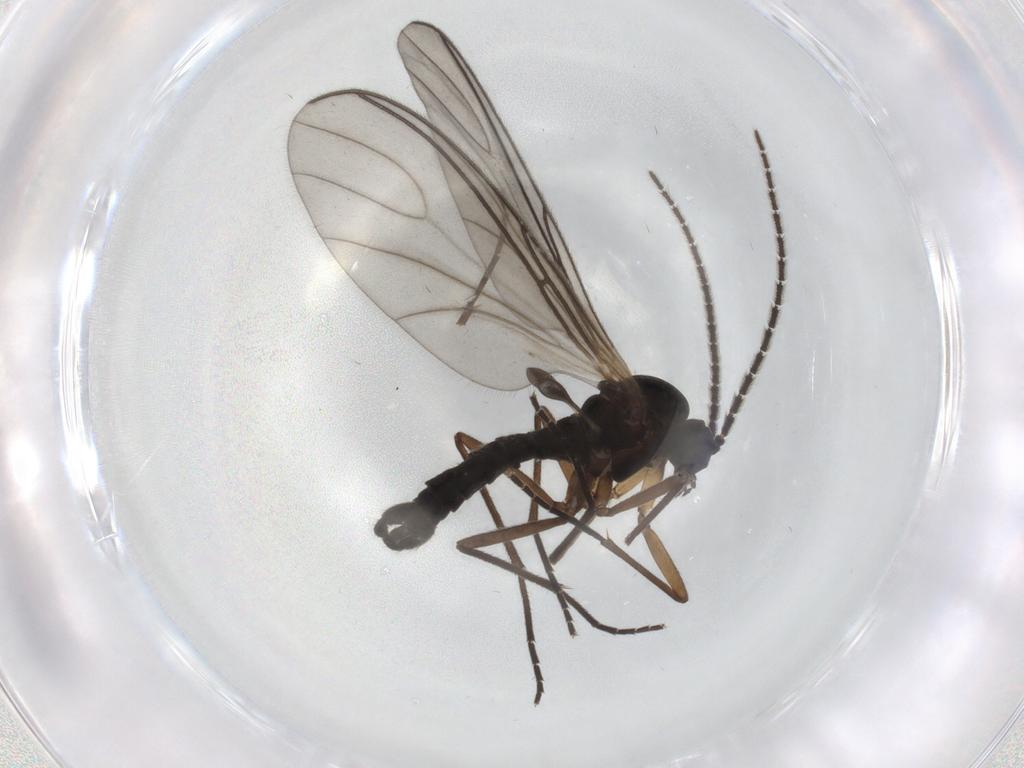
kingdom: Animalia
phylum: Arthropoda
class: Insecta
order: Diptera
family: Sciaridae
